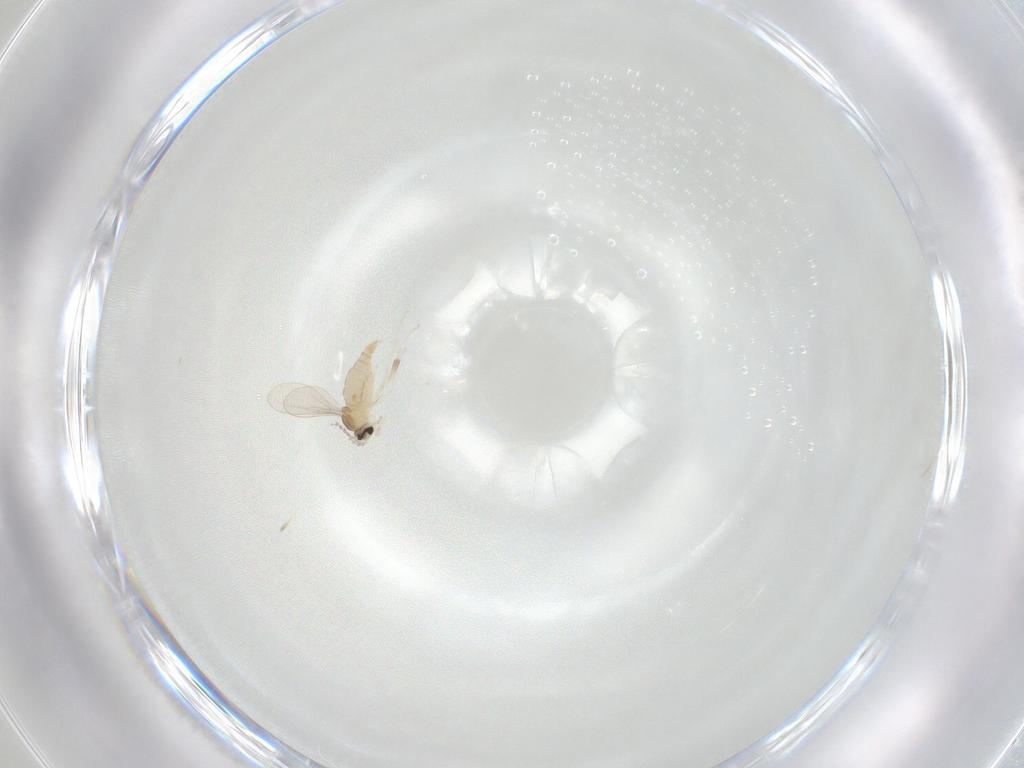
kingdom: Animalia
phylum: Arthropoda
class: Insecta
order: Diptera
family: Cecidomyiidae
